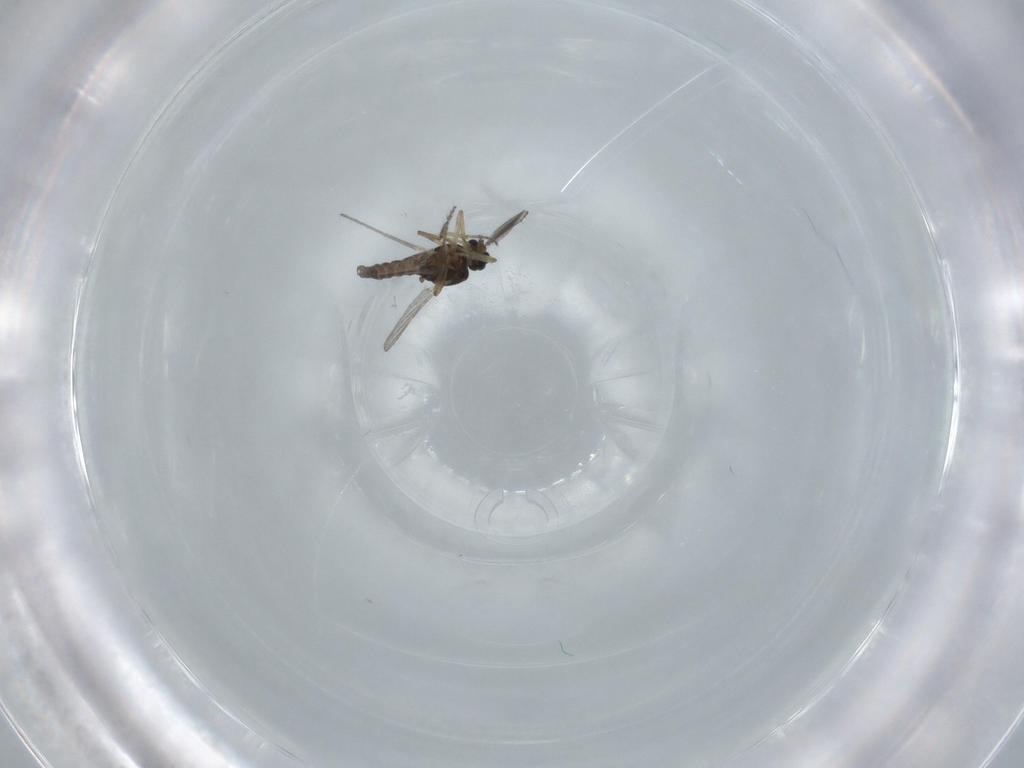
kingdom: Animalia
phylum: Arthropoda
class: Insecta
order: Diptera
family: Ceratopogonidae
